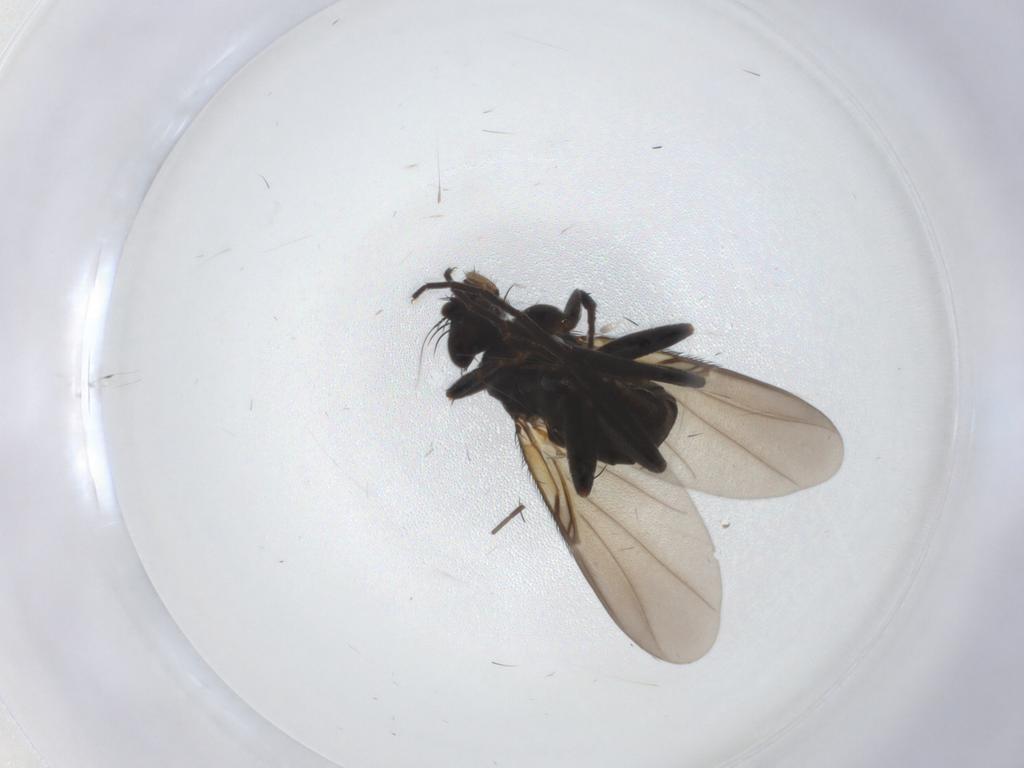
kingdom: Animalia
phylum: Arthropoda
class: Insecta
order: Diptera
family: Phoridae
